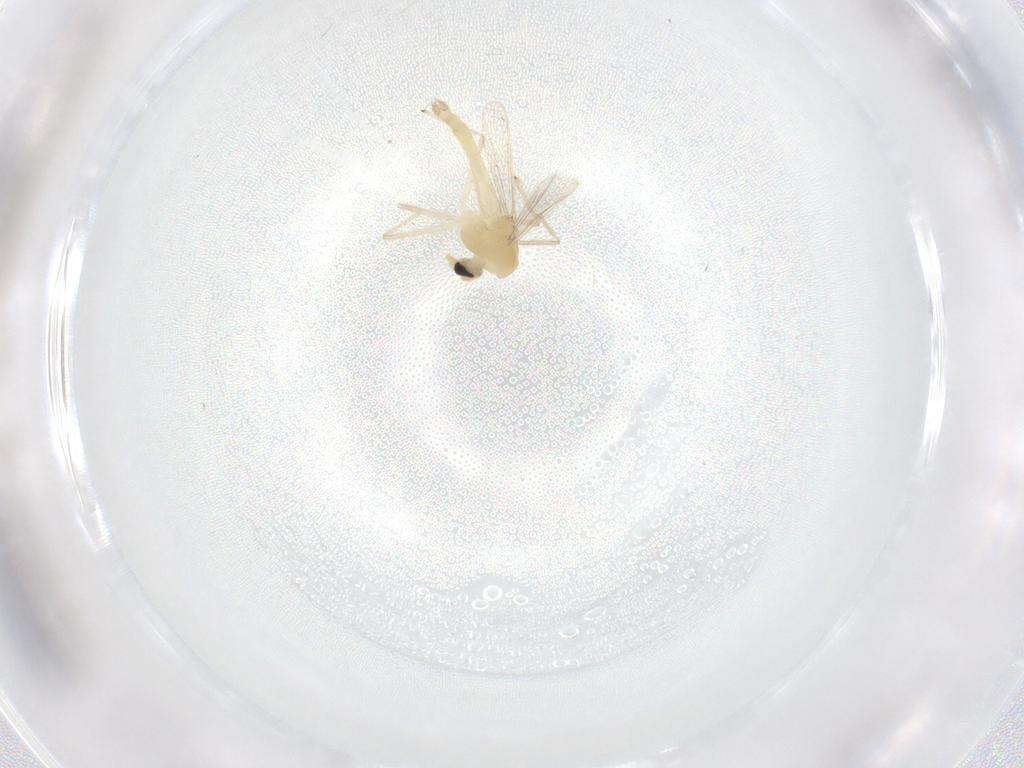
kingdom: Animalia
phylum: Arthropoda
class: Insecta
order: Diptera
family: Chironomidae
